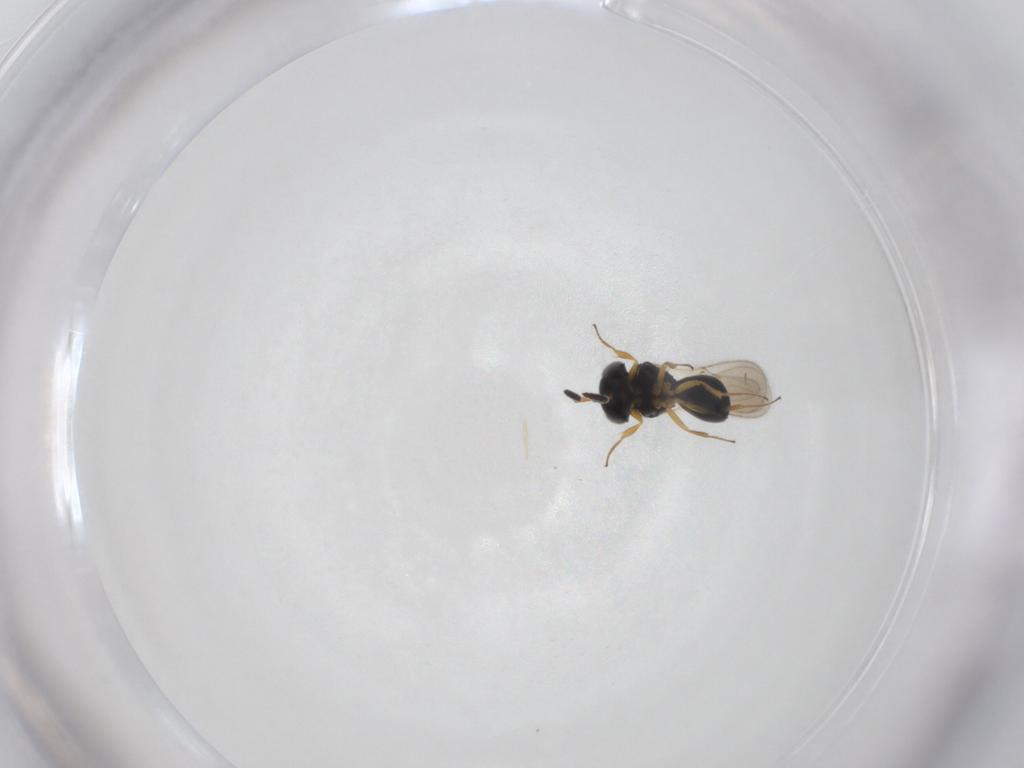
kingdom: Animalia
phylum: Arthropoda
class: Insecta
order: Hymenoptera
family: Scelionidae
